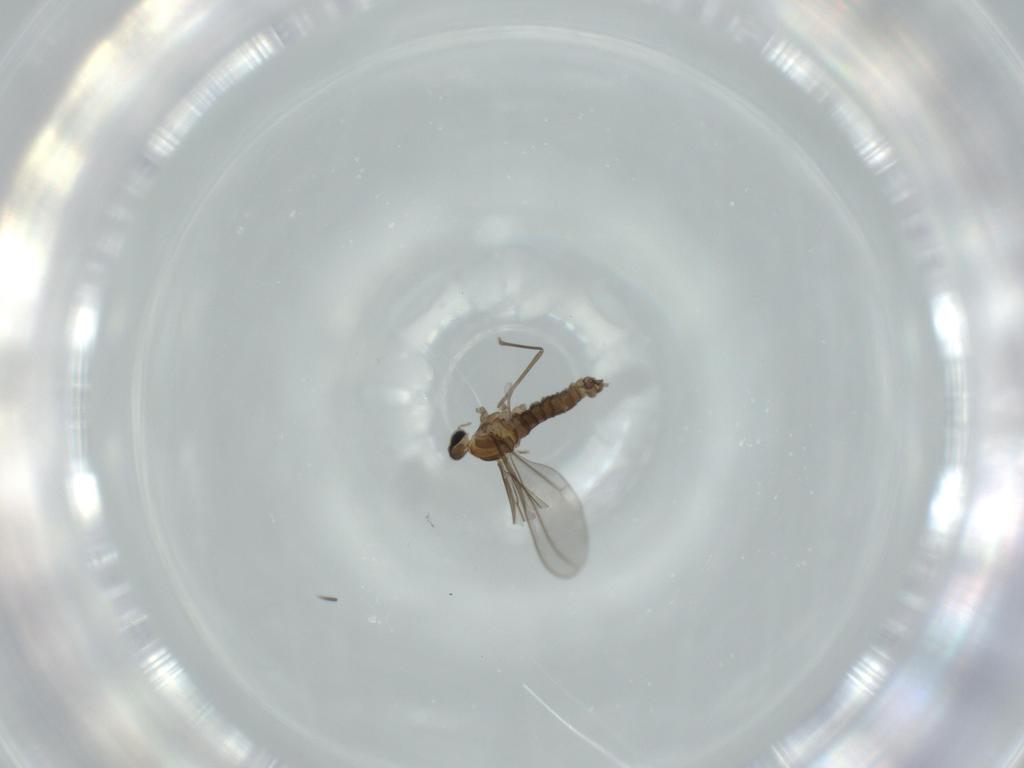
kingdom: Animalia
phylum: Arthropoda
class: Insecta
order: Diptera
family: Cecidomyiidae
